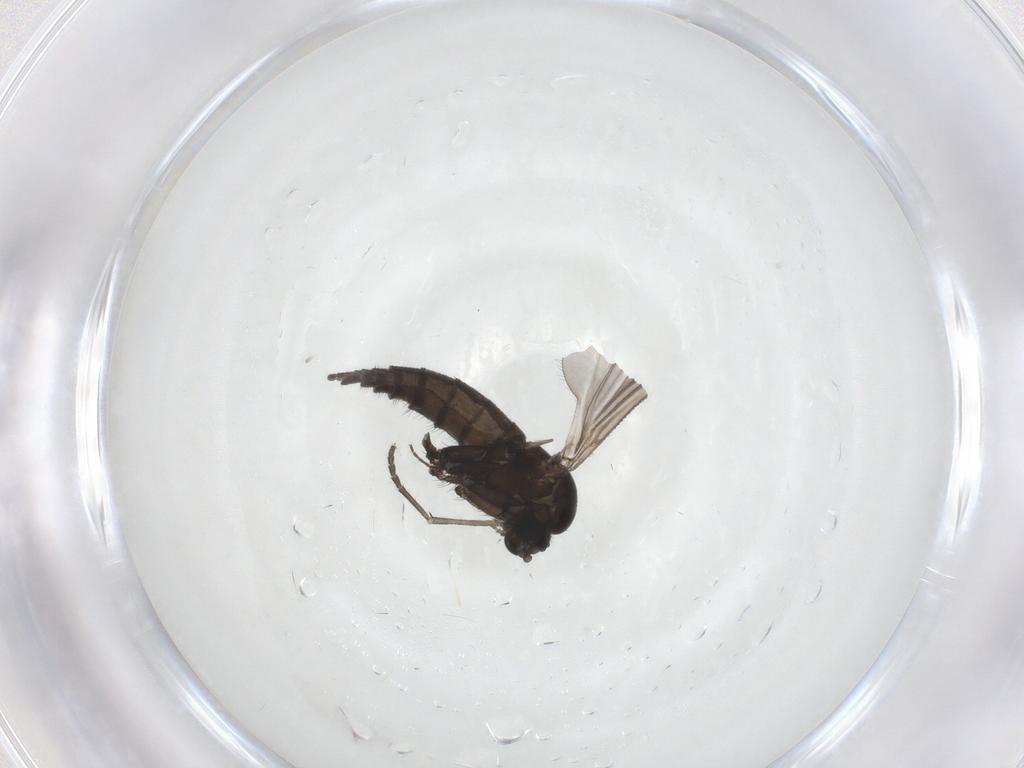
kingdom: Animalia
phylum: Arthropoda
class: Insecta
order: Diptera
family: Sciaridae
